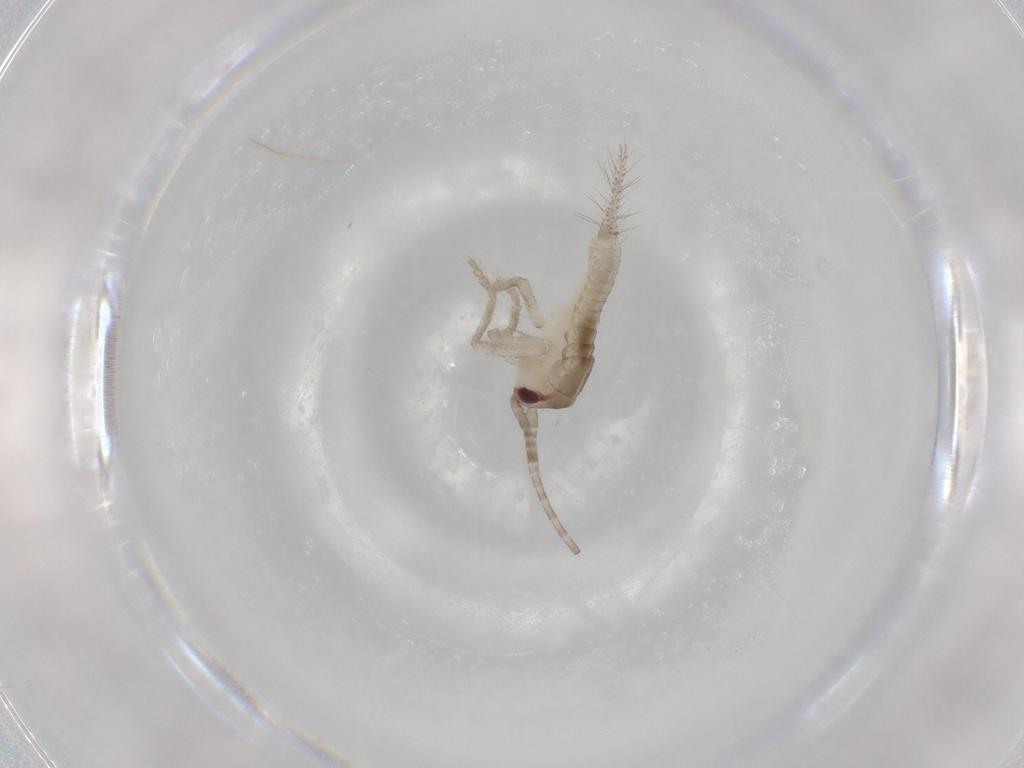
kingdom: Animalia
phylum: Arthropoda
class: Insecta
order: Orthoptera
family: Gryllidae
